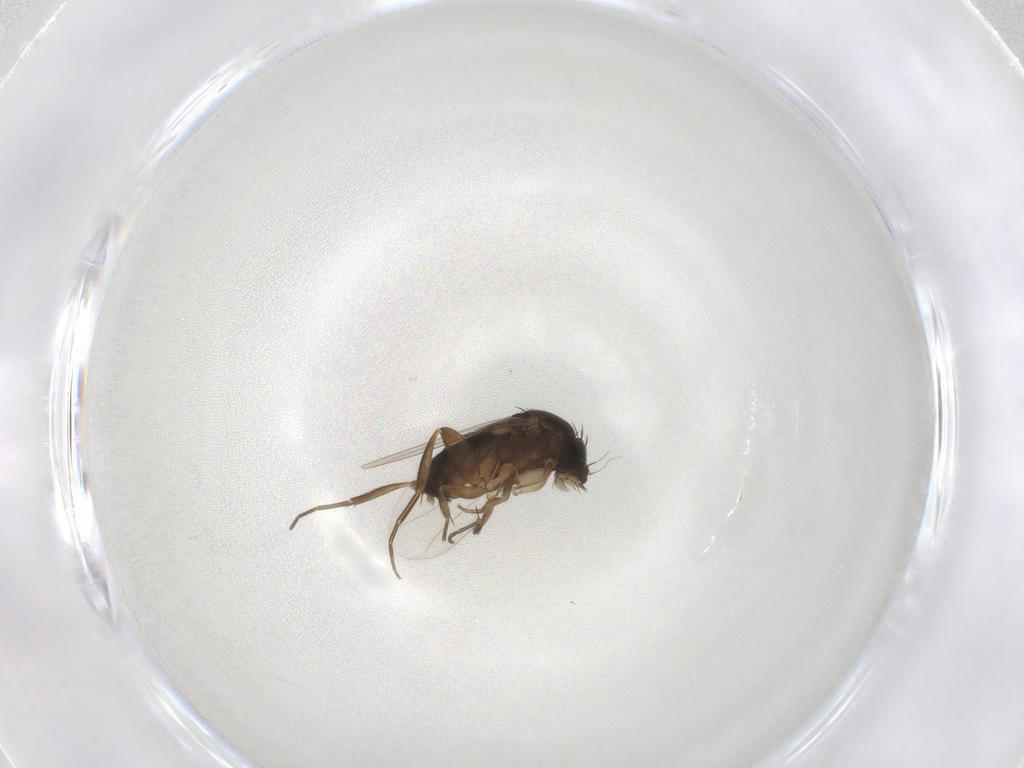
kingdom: Animalia
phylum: Arthropoda
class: Insecta
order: Diptera
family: Phoridae
